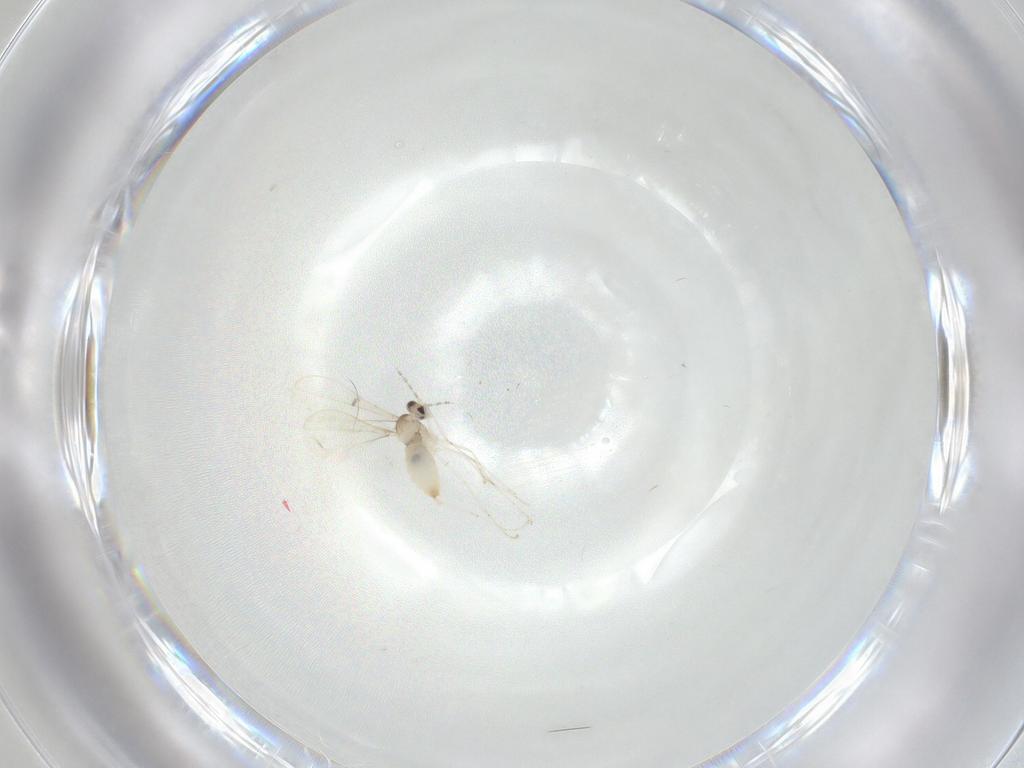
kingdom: Animalia
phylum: Arthropoda
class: Insecta
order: Diptera
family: Cecidomyiidae
